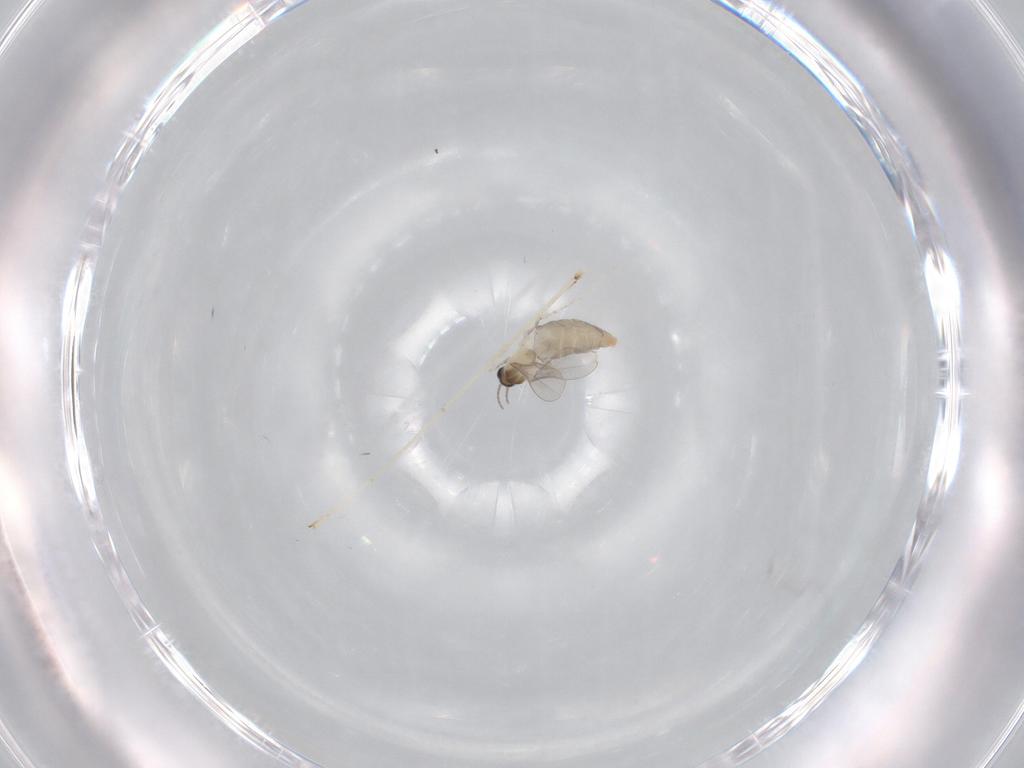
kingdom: Animalia
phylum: Arthropoda
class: Insecta
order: Diptera
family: Cecidomyiidae
